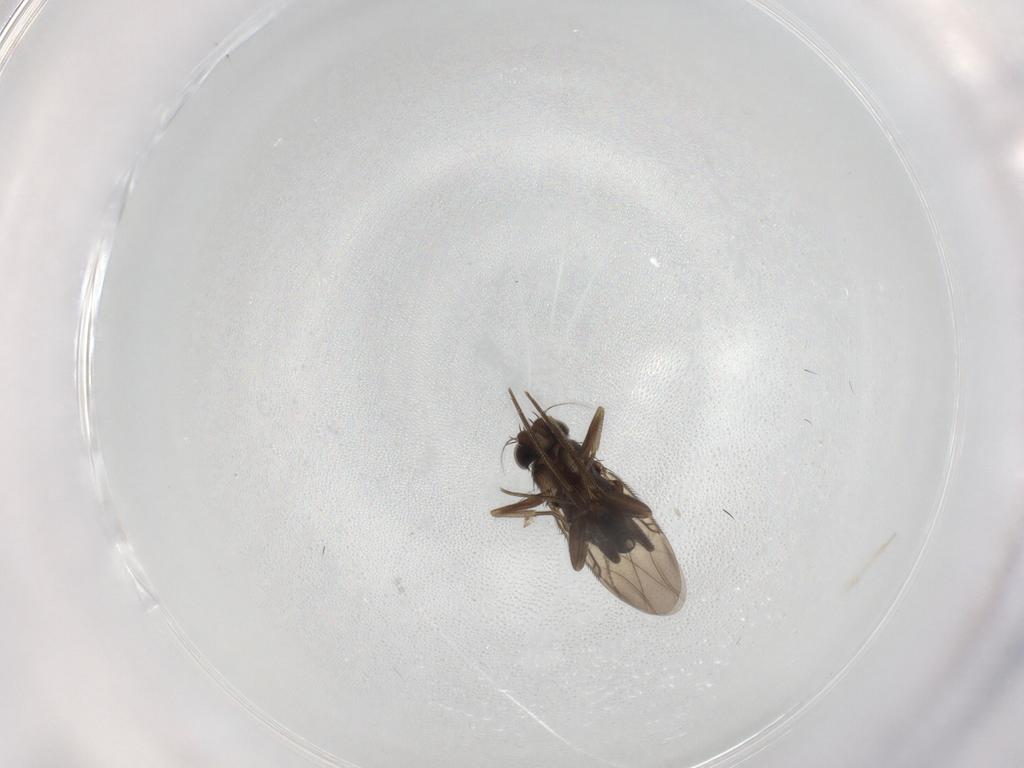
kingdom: Animalia
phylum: Arthropoda
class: Insecta
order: Diptera
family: Phoridae
